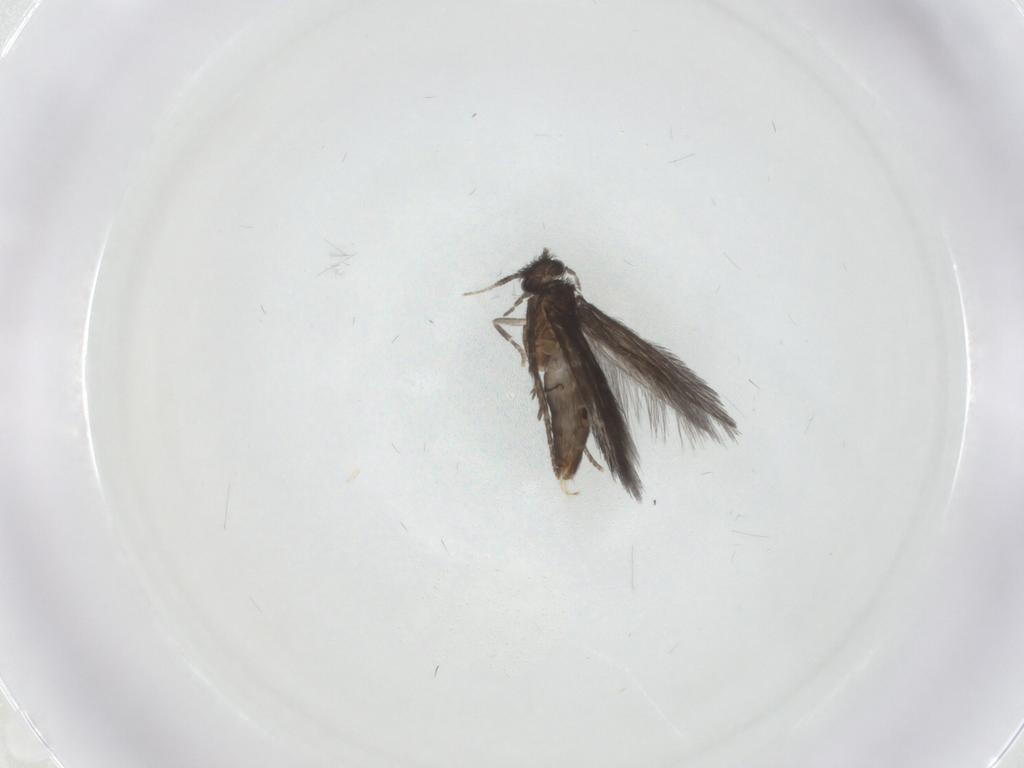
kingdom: Animalia
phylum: Arthropoda
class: Insecta
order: Trichoptera
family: Hydroptilidae
